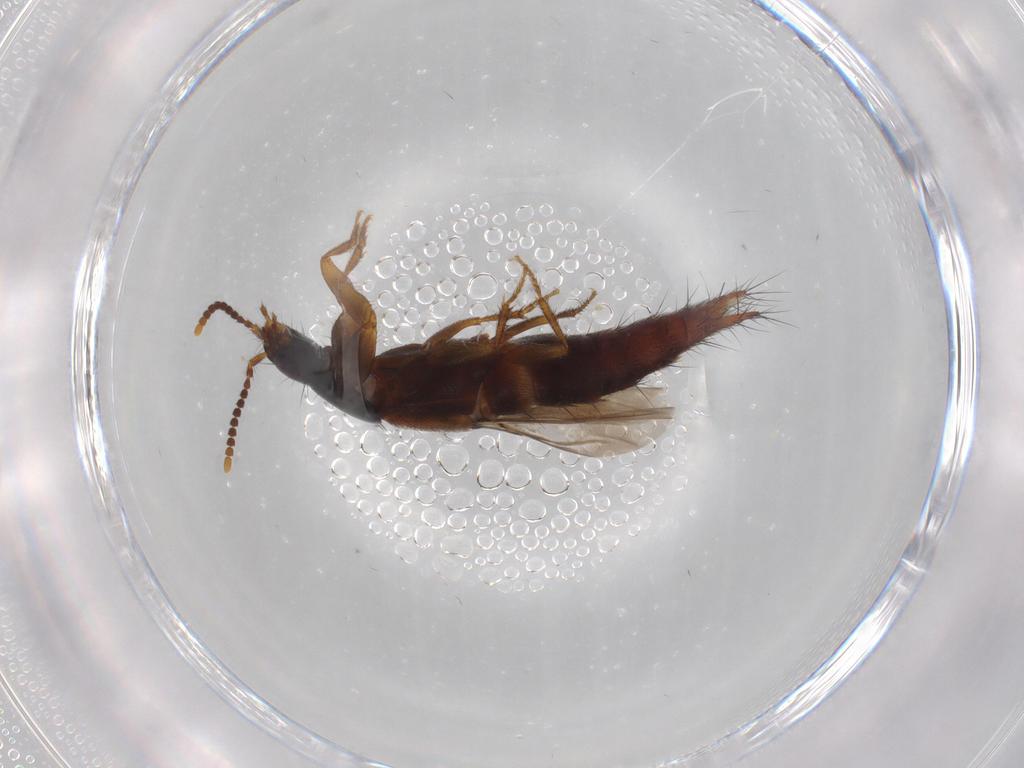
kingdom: Animalia
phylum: Arthropoda
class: Insecta
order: Coleoptera
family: Staphylinidae
